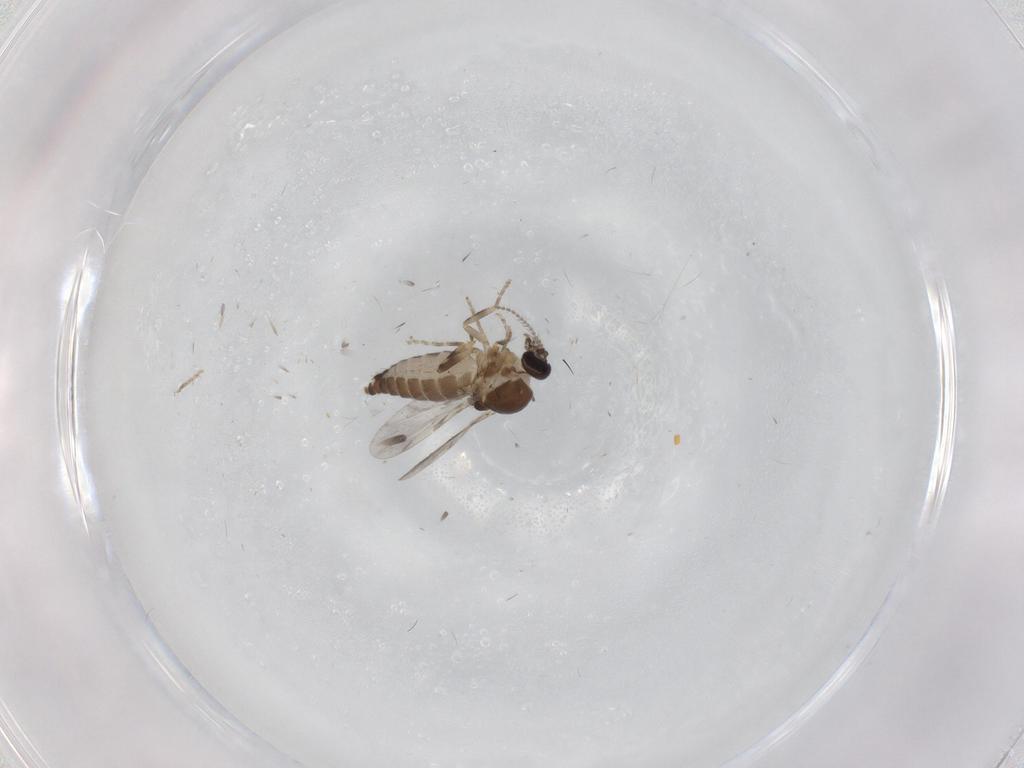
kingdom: Animalia
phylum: Arthropoda
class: Insecta
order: Diptera
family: Ceratopogonidae
